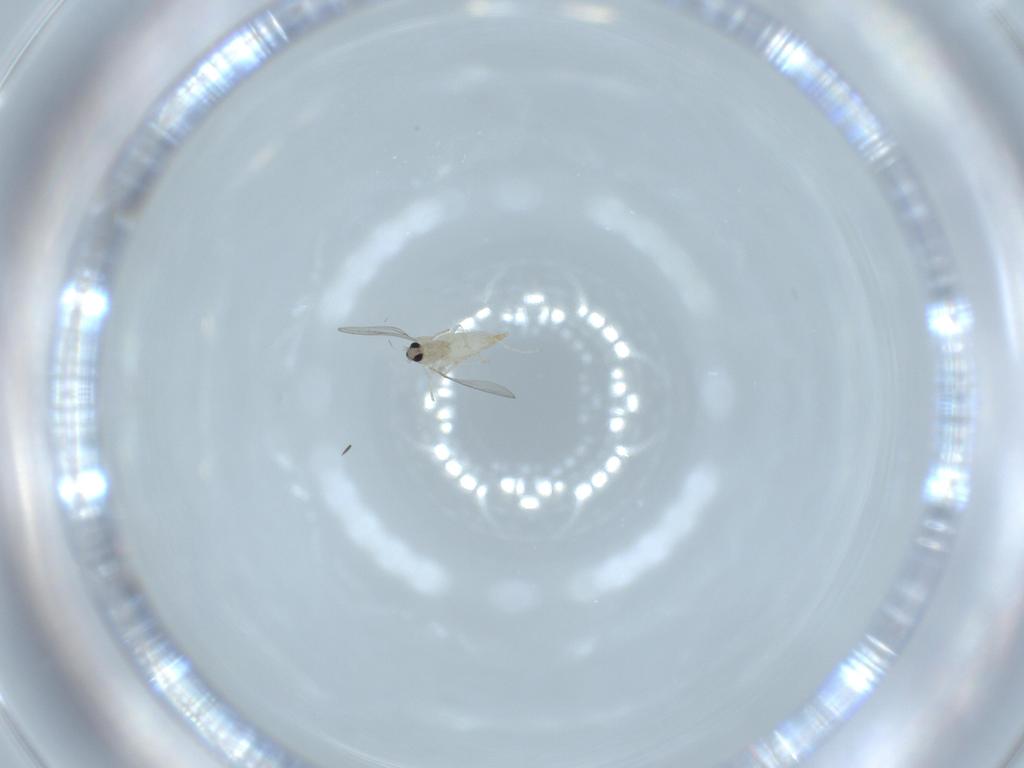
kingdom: Animalia
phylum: Arthropoda
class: Insecta
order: Diptera
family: Cecidomyiidae
